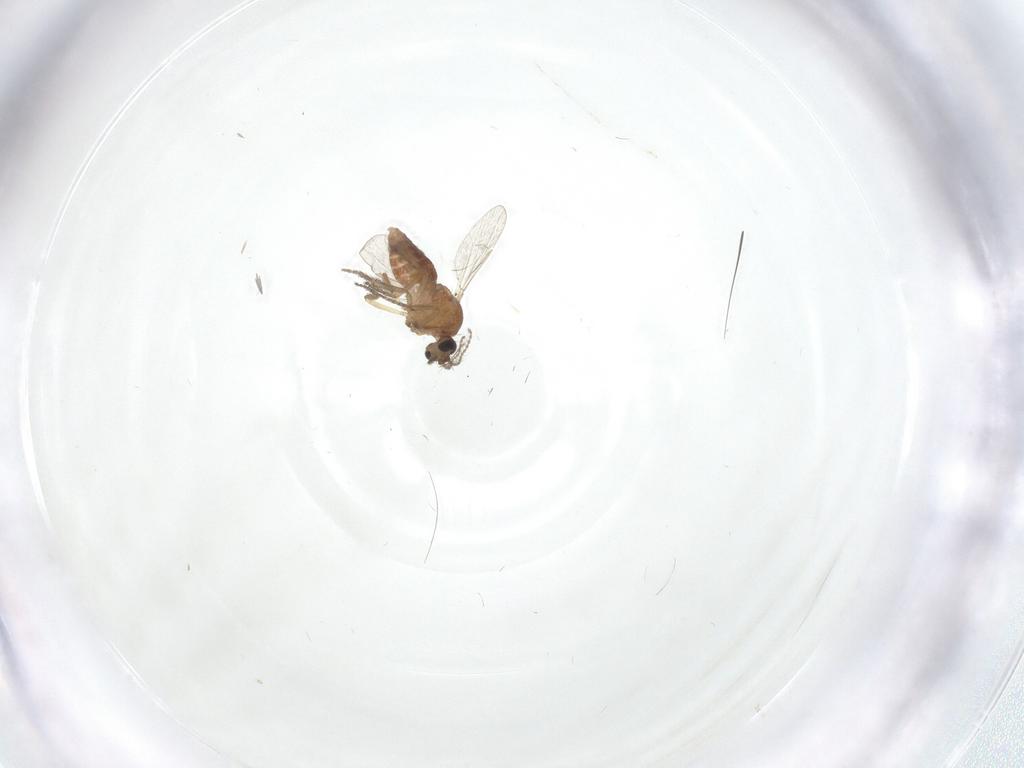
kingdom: Animalia
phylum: Arthropoda
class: Insecta
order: Diptera
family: Ceratopogonidae
